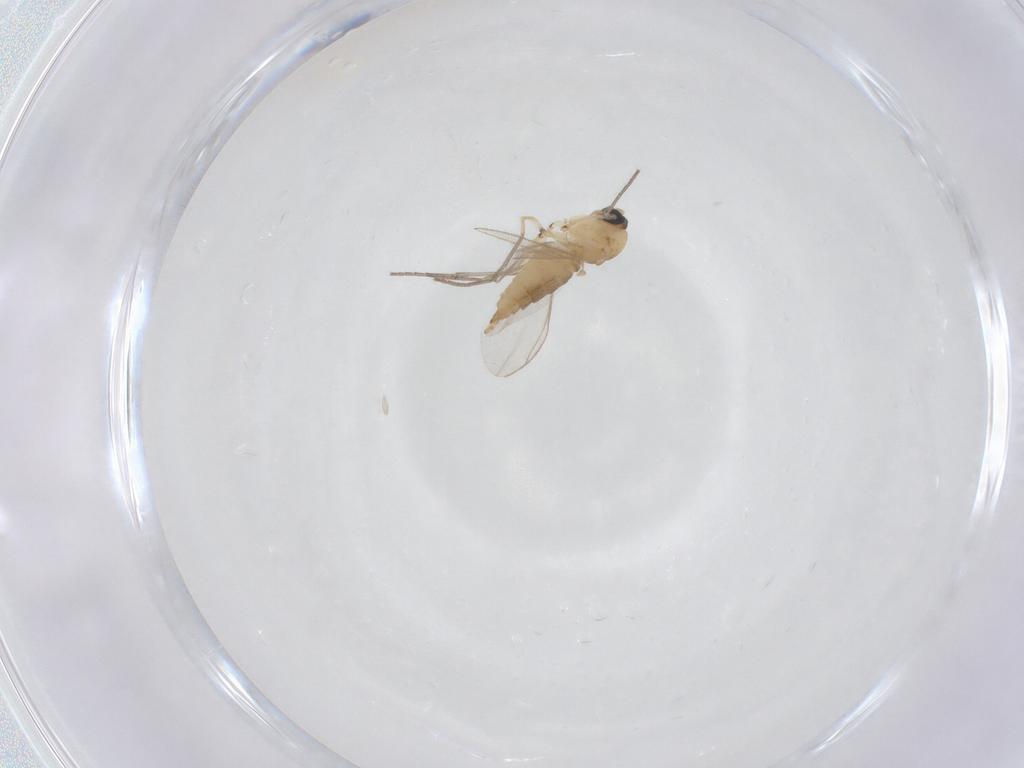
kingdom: Animalia
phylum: Arthropoda
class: Insecta
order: Diptera
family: Sciaridae
